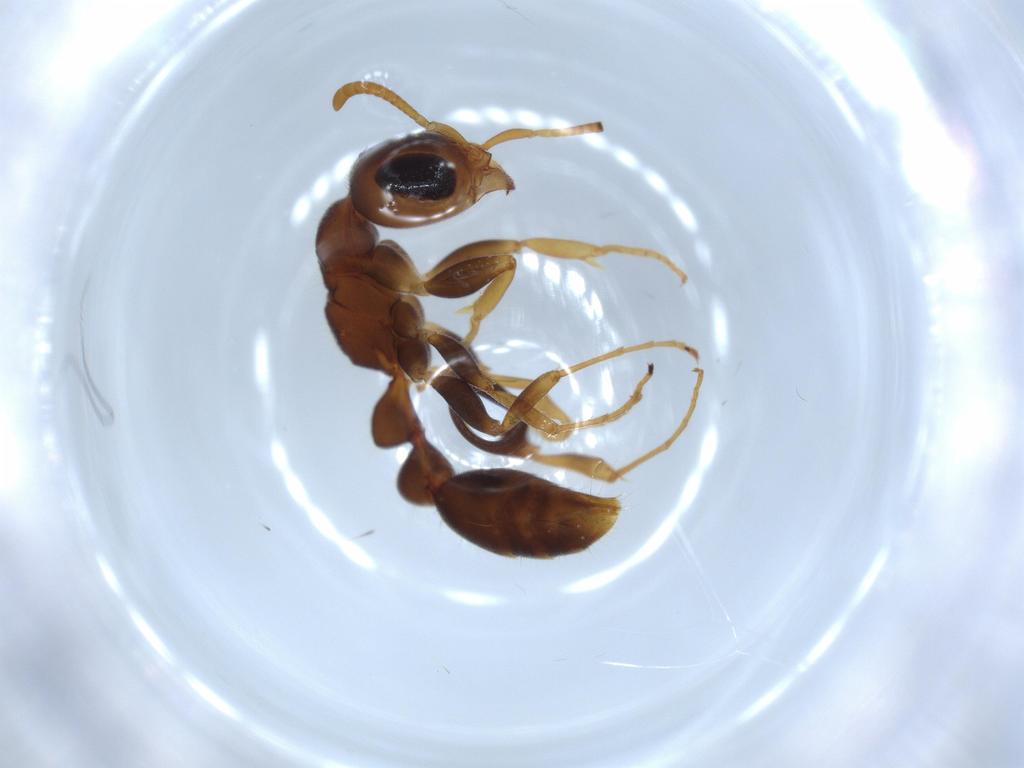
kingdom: Animalia
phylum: Arthropoda
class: Insecta
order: Hymenoptera
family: Formicidae
